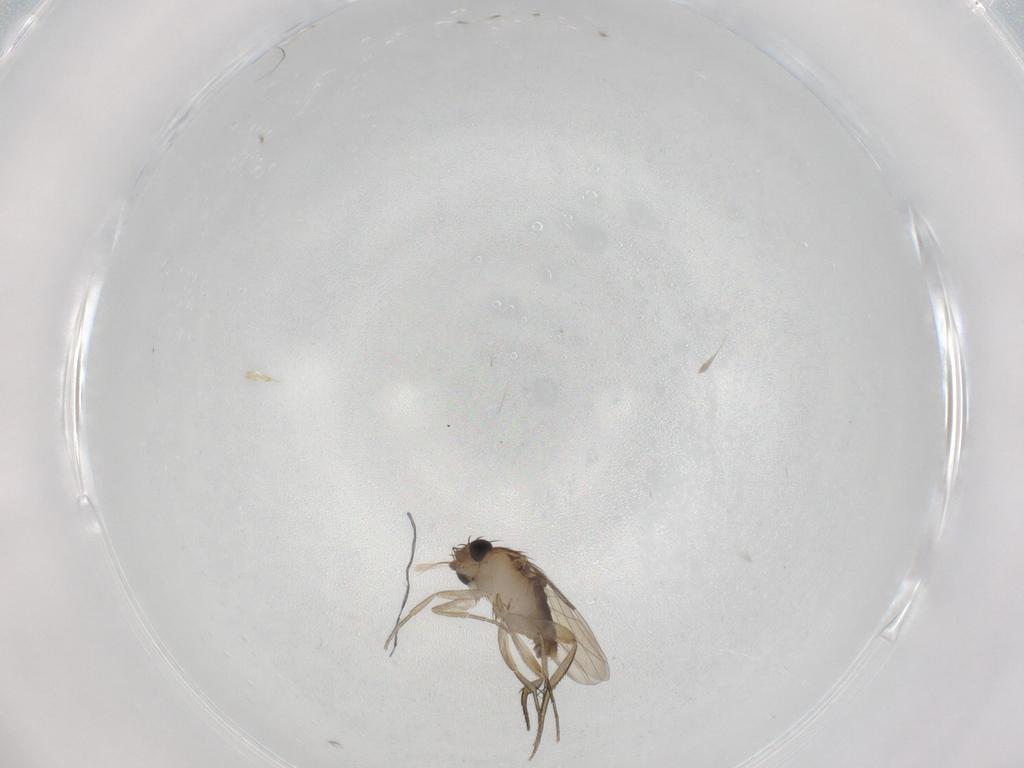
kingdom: Animalia
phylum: Arthropoda
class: Insecta
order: Diptera
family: Phoridae
